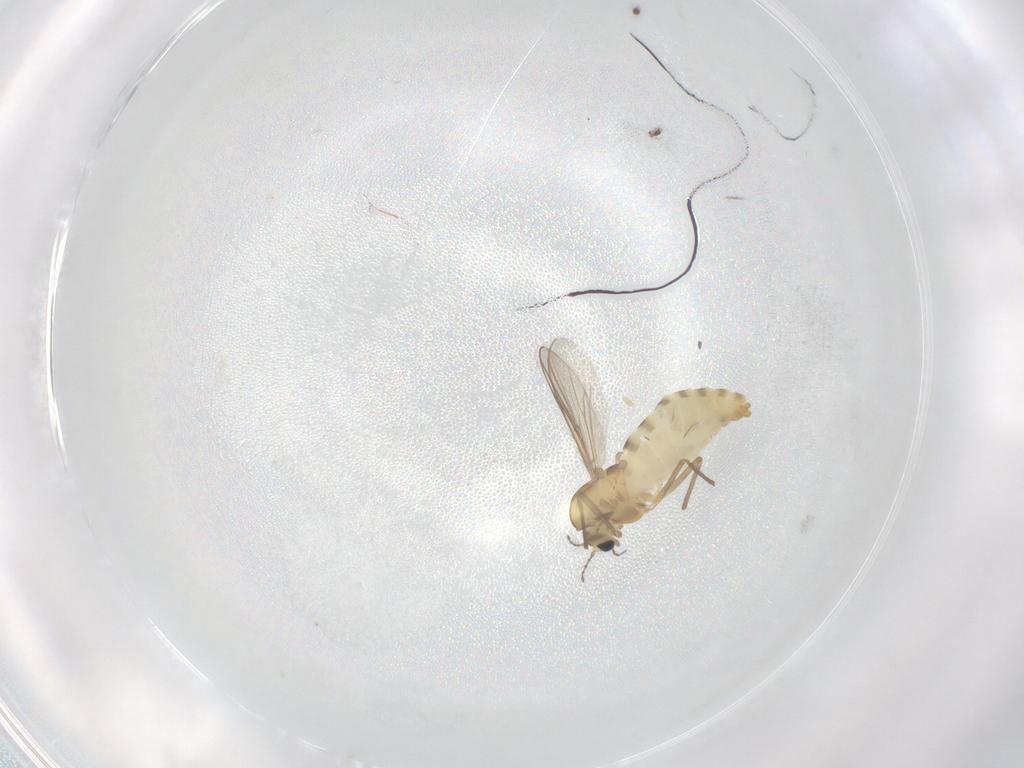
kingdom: Animalia
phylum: Arthropoda
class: Insecta
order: Diptera
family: Chironomidae
